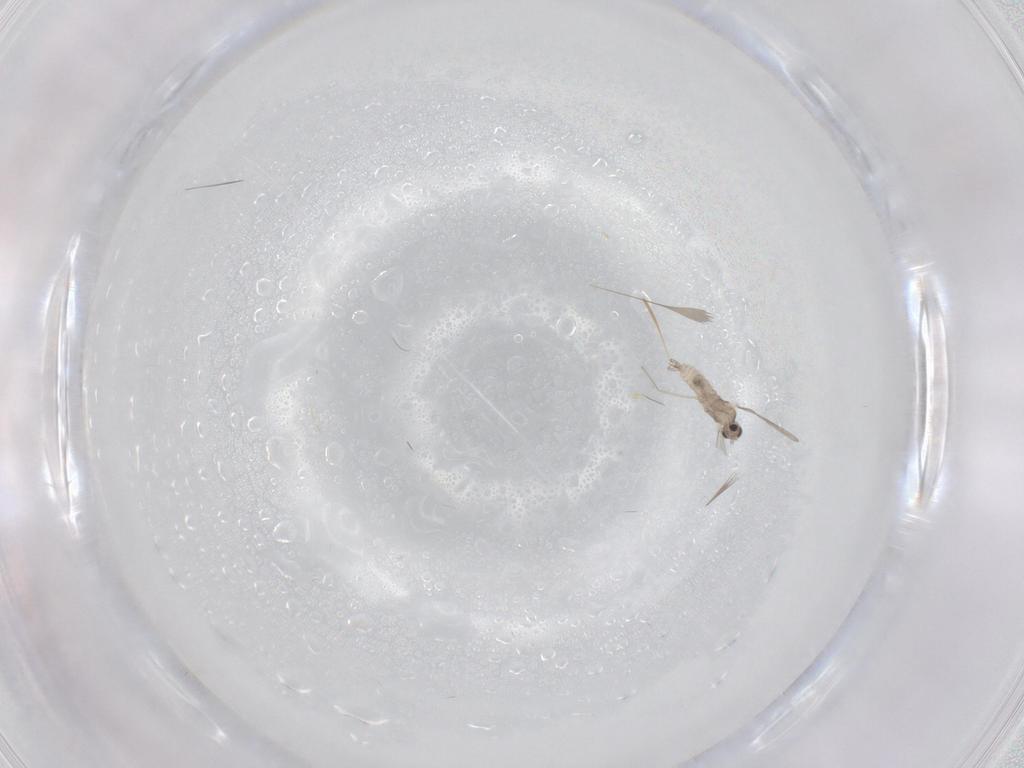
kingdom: Animalia
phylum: Arthropoda
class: Insecta
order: Diptera
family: Cecidomyiidae
